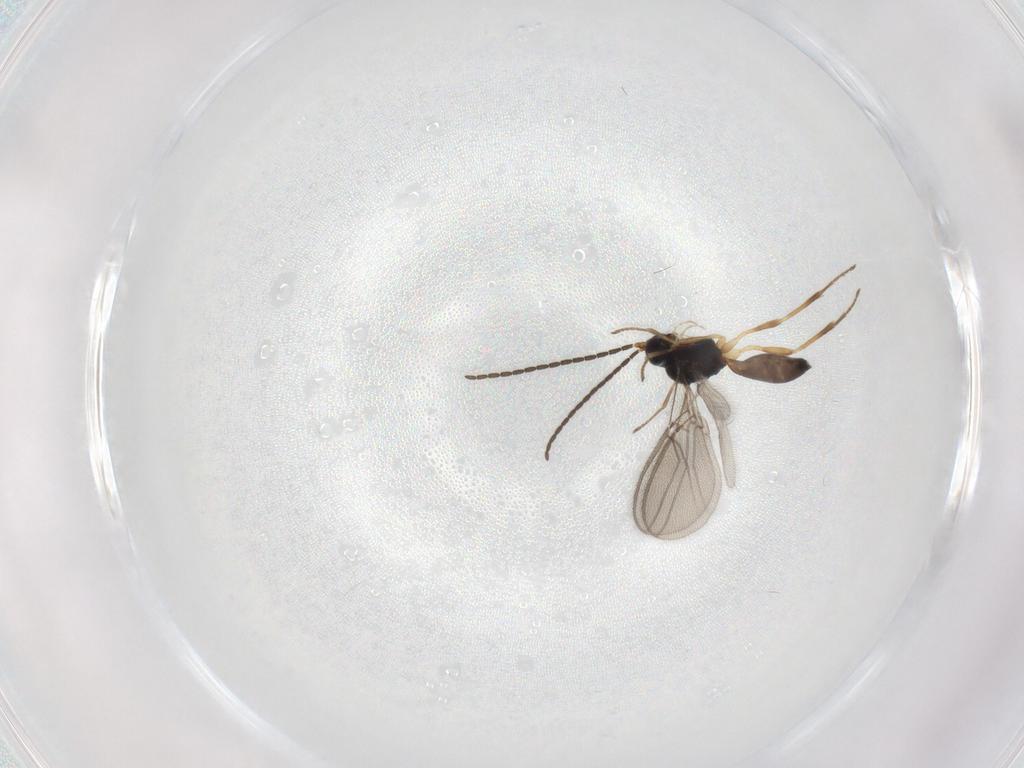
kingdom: Animalia
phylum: Arthropoda
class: Insecta
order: Hymenoptera
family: Braconidae
